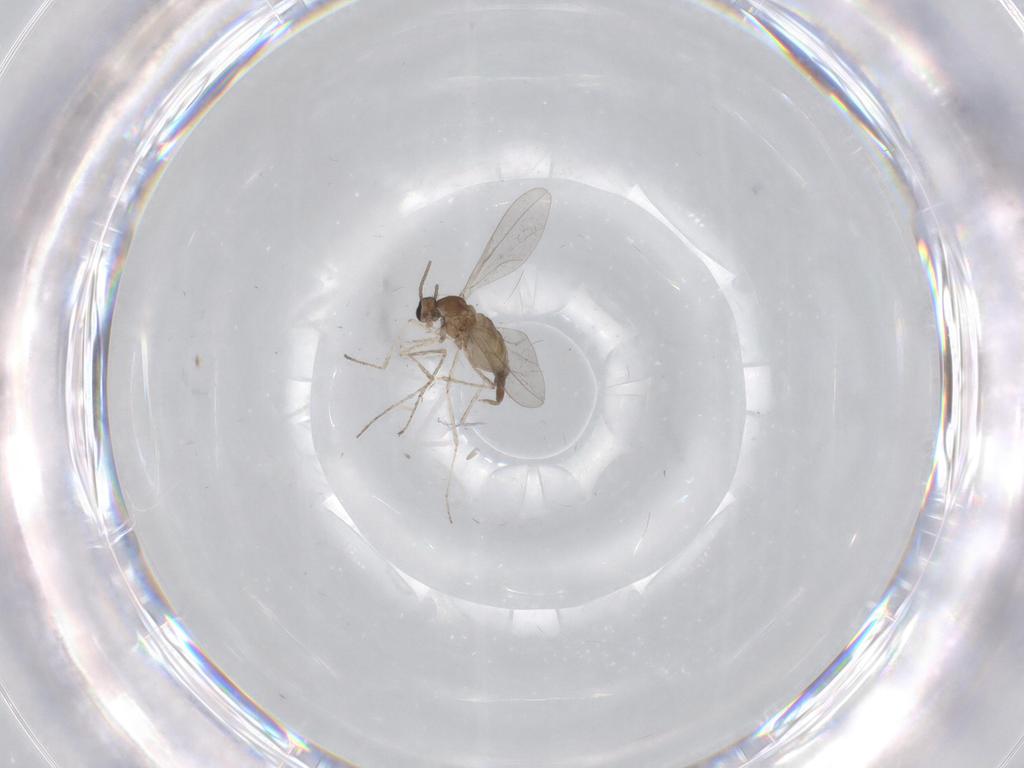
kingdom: Animalia
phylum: Arthropoda
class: Insecta
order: Diptera
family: Cecidomyiidae
